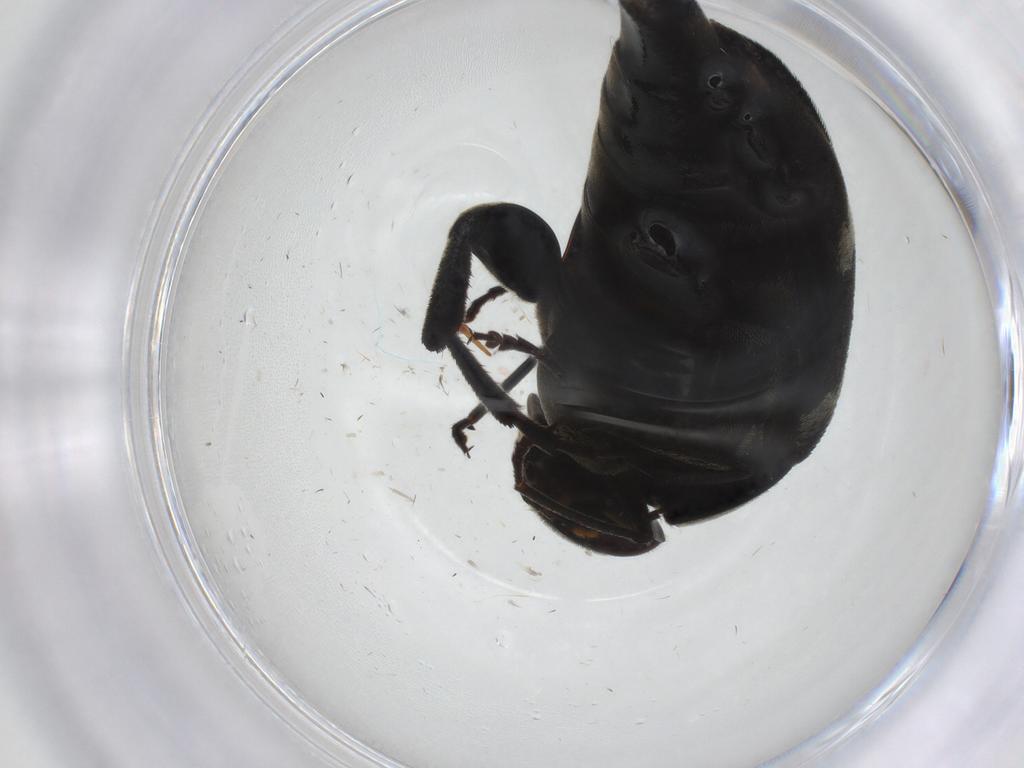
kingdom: Animalia
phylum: Arthropoda
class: Insecta
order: Coleoptera
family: Mordellidae
